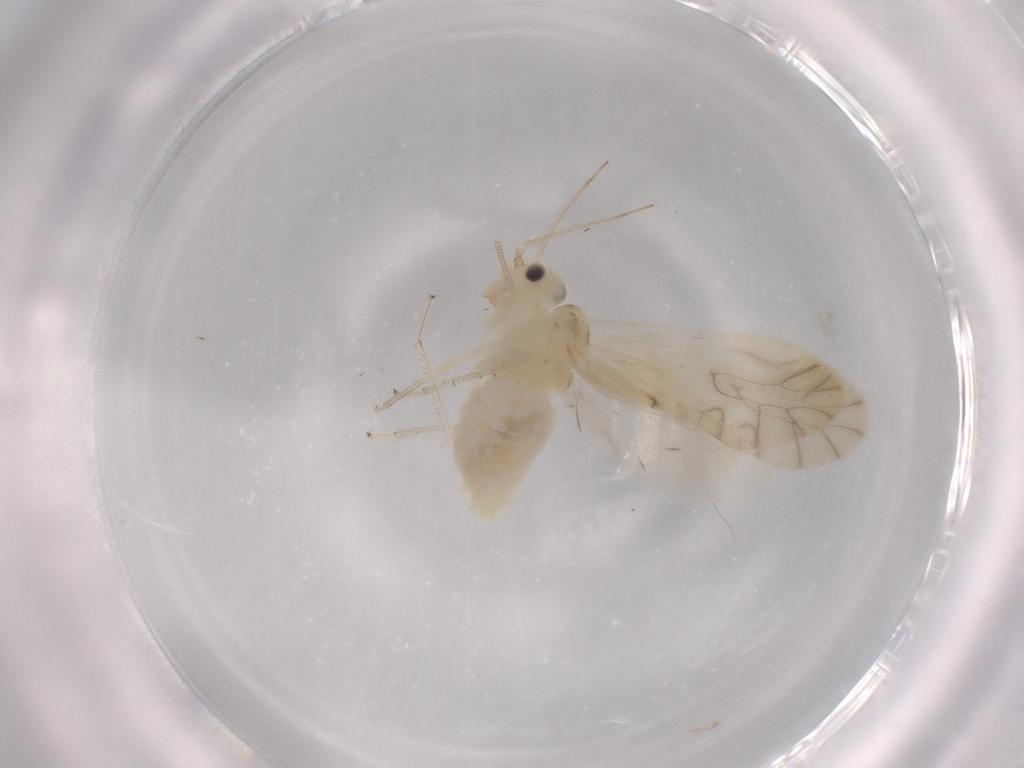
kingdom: Animalia
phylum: Arthropoda
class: Insecta
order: Psocodea
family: Caeciliusidae
